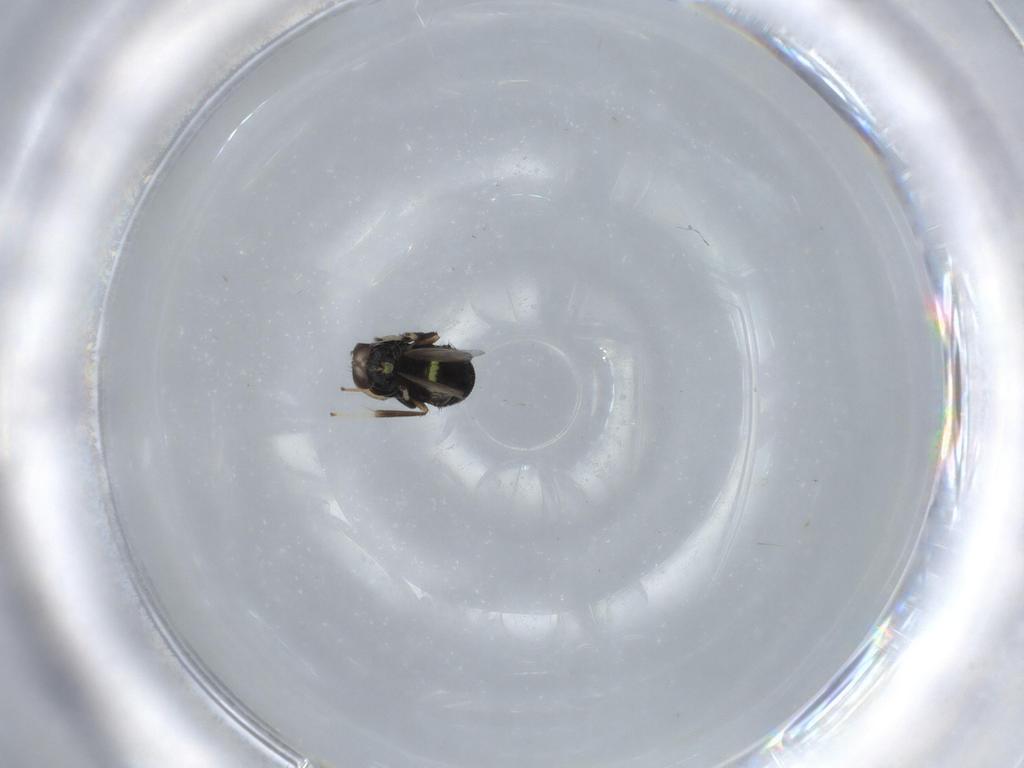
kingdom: Animalia
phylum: Arthropoda
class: Insecta
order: Hymenoptera
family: Platygastridae
